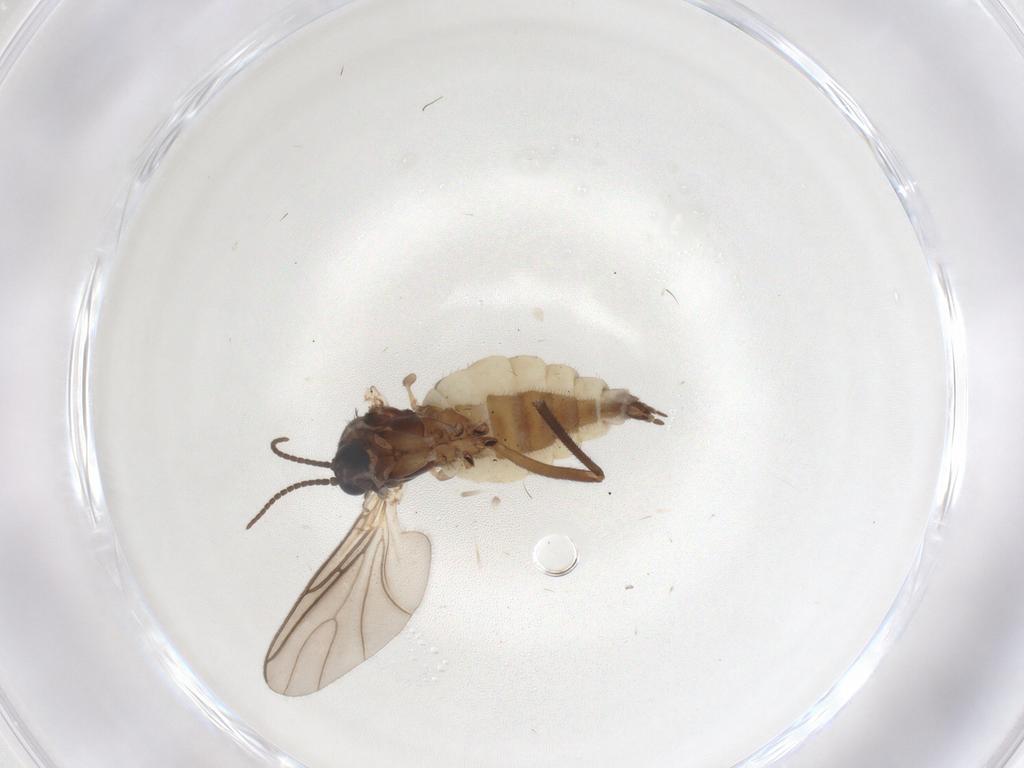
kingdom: Animalia
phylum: Arthropoda
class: Insecta
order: Diptera
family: Sciaridae
